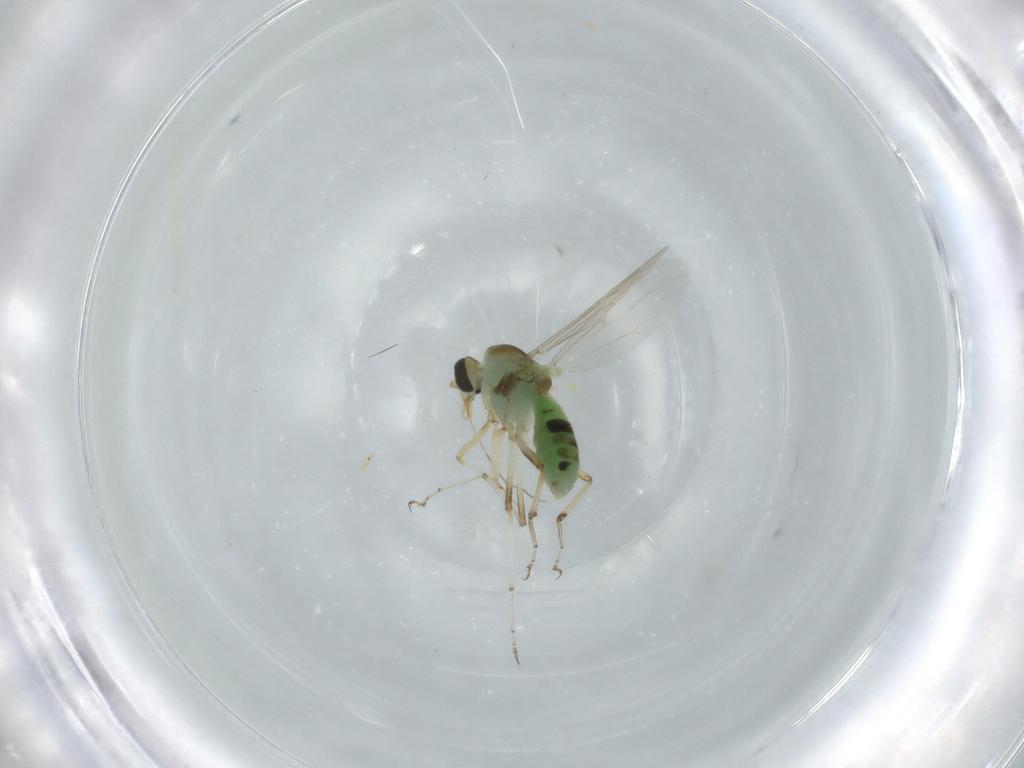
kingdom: Animalia
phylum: Arthropoda
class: Insecta
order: Diptera
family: Ceratopogonidae
